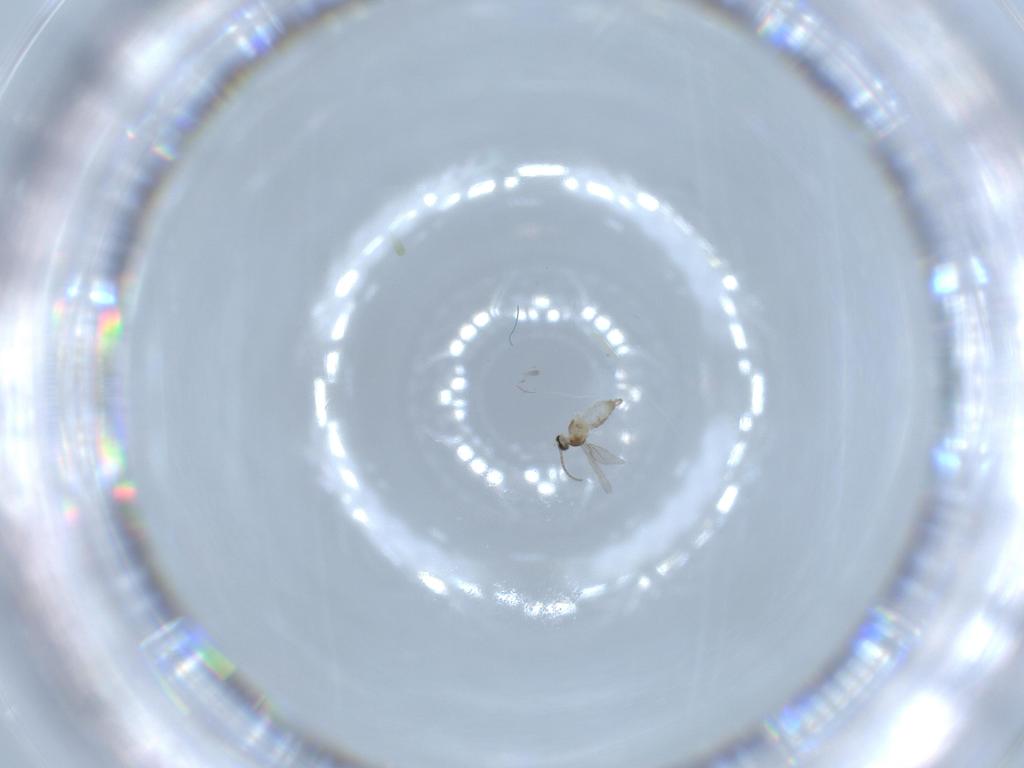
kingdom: Animalia
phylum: Arthropoda
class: Insecta
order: Diptera
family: Cecidomyiidae
